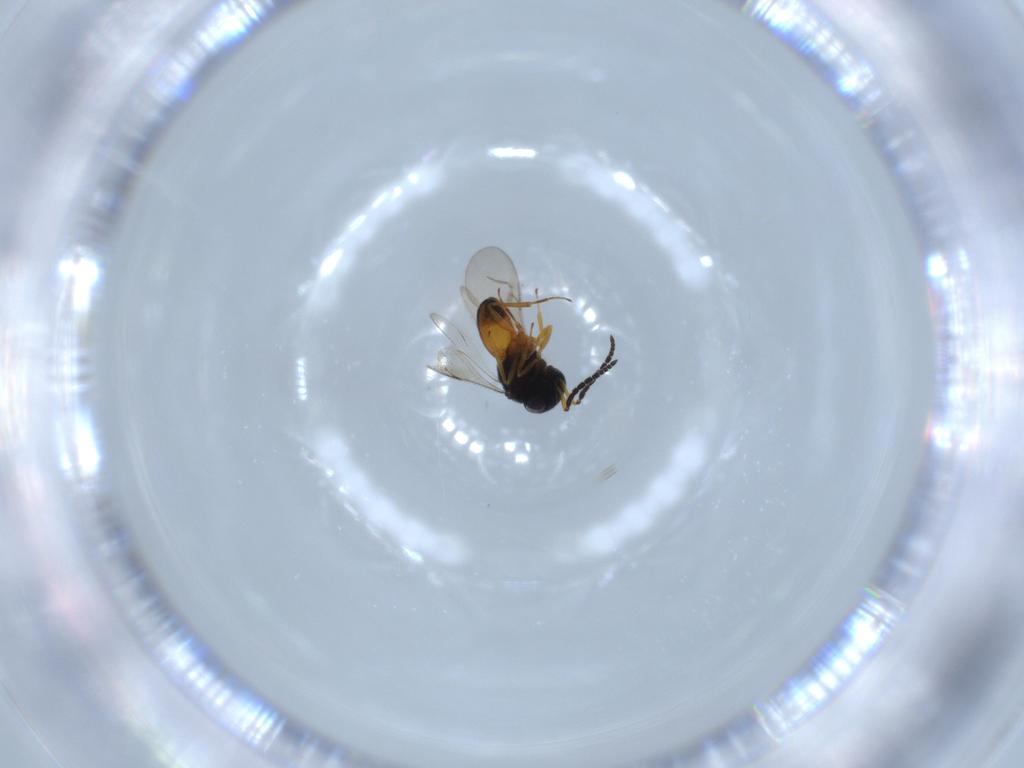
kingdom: Animalia
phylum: Arthropoda
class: Insecta
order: Hymenoptera
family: Scelionidae
